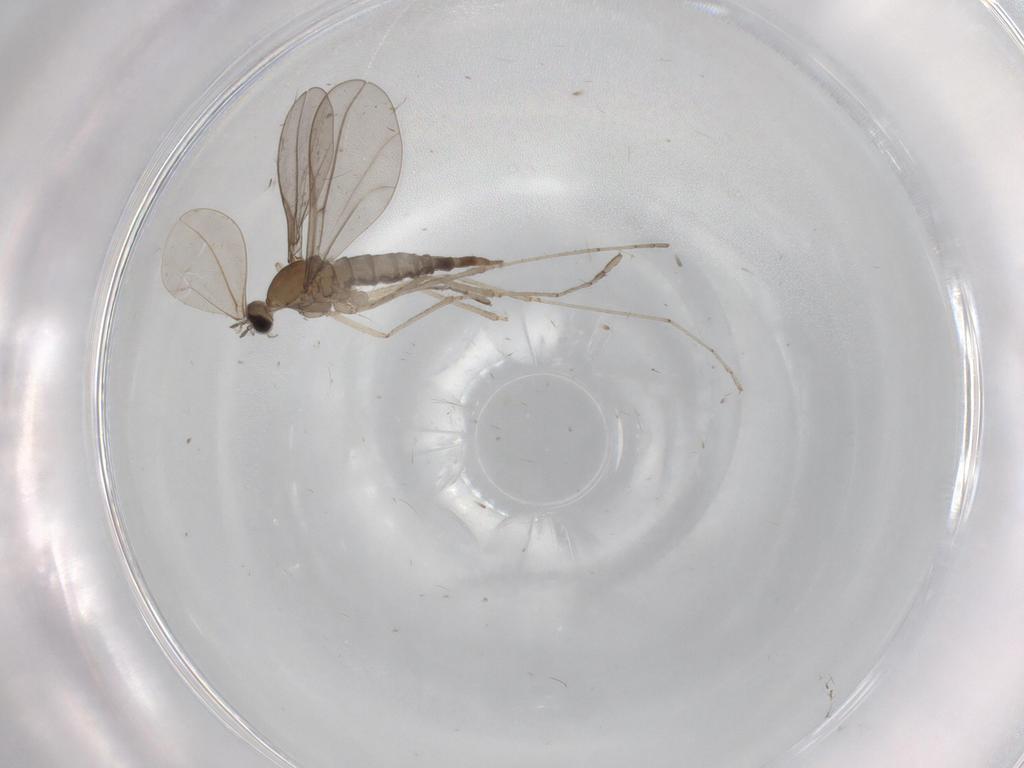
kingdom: Animalia
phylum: Arthropoda
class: Insecta
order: Diptera
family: Cecidomyiidae
